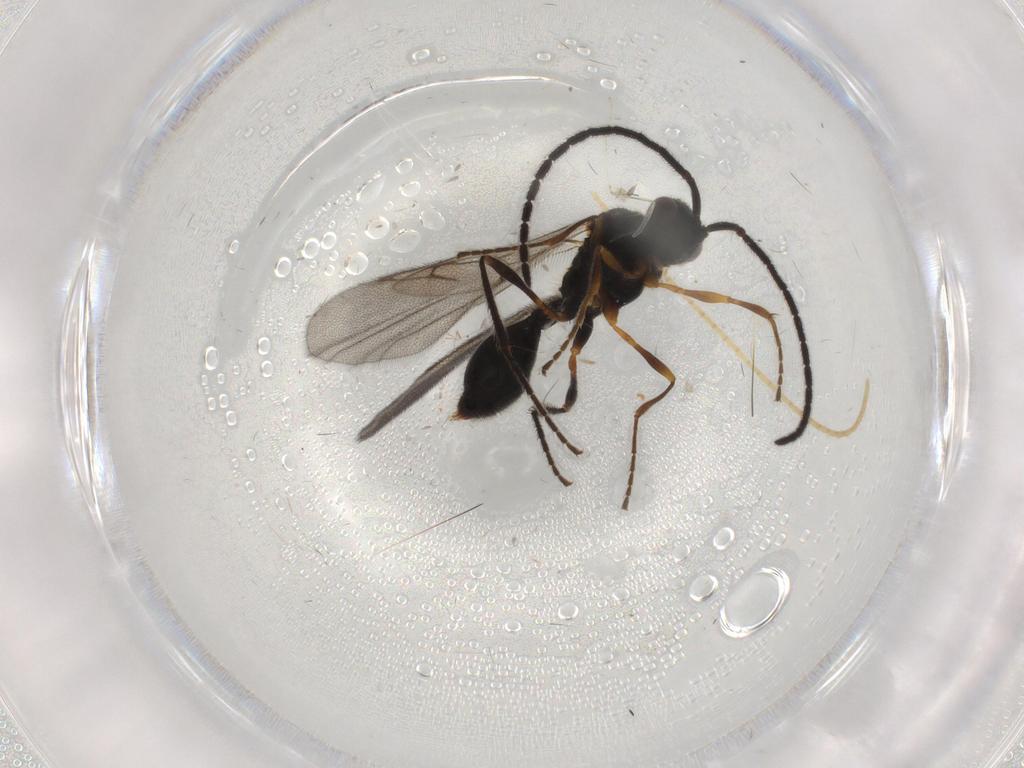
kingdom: Animalia
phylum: Arthropoda
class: Insecta
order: Hymenoptera
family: Diapriidae
